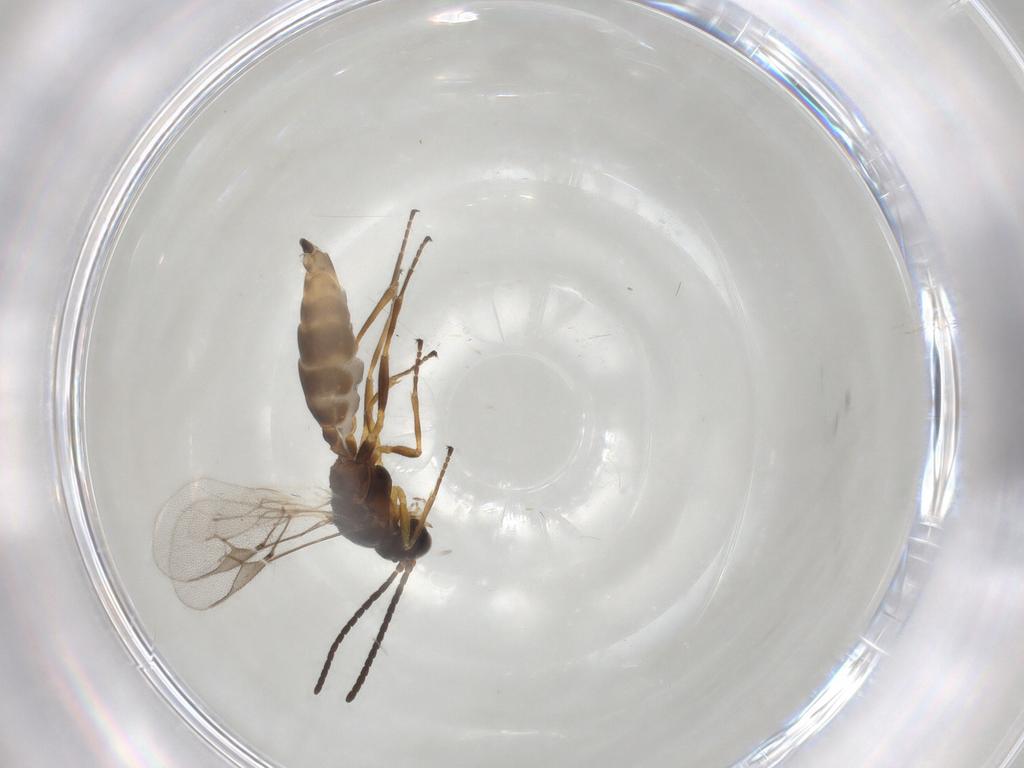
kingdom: Animalia
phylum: Arthropoda
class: Insecta
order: Hymenoptera
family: Braconidae
